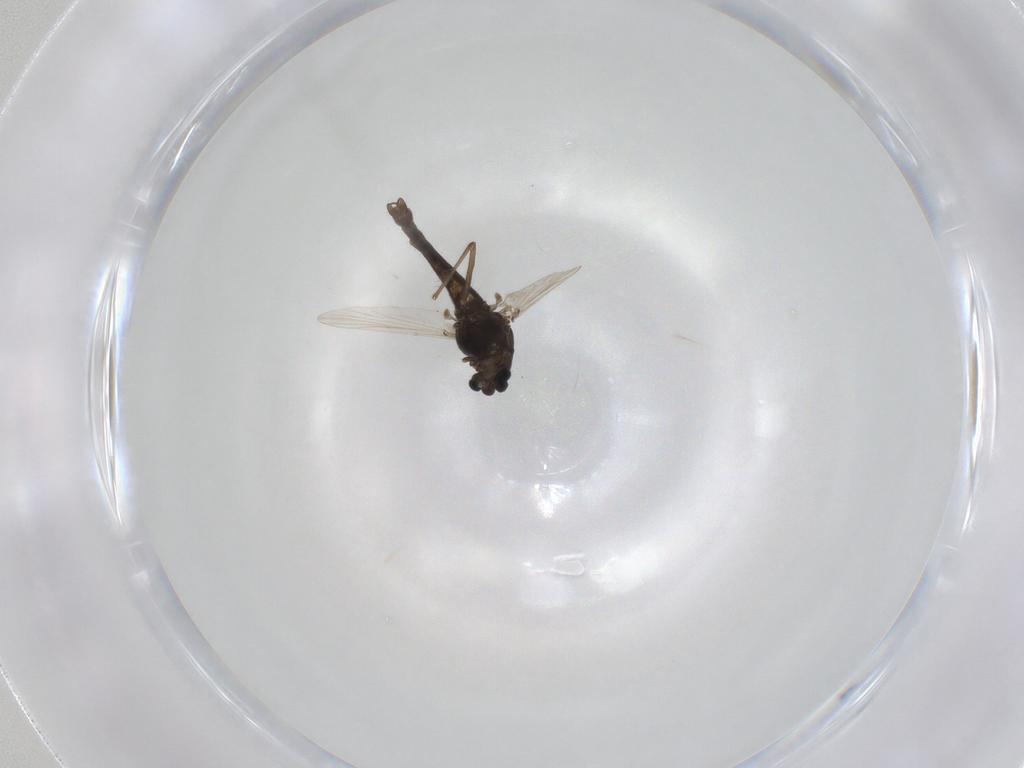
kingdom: Animalia
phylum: Arthropoda
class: Insecta
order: Diptera
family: Chironomidae
